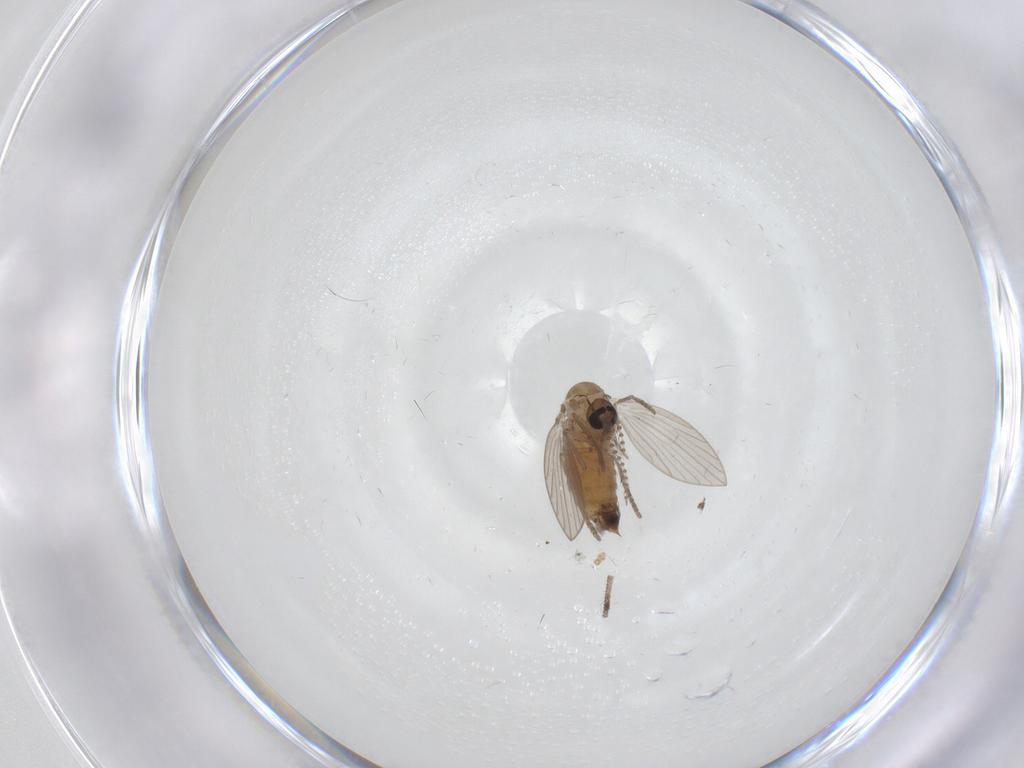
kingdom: Animalia
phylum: Arthropoda
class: Insecta
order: Diptera
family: Psychodidae
